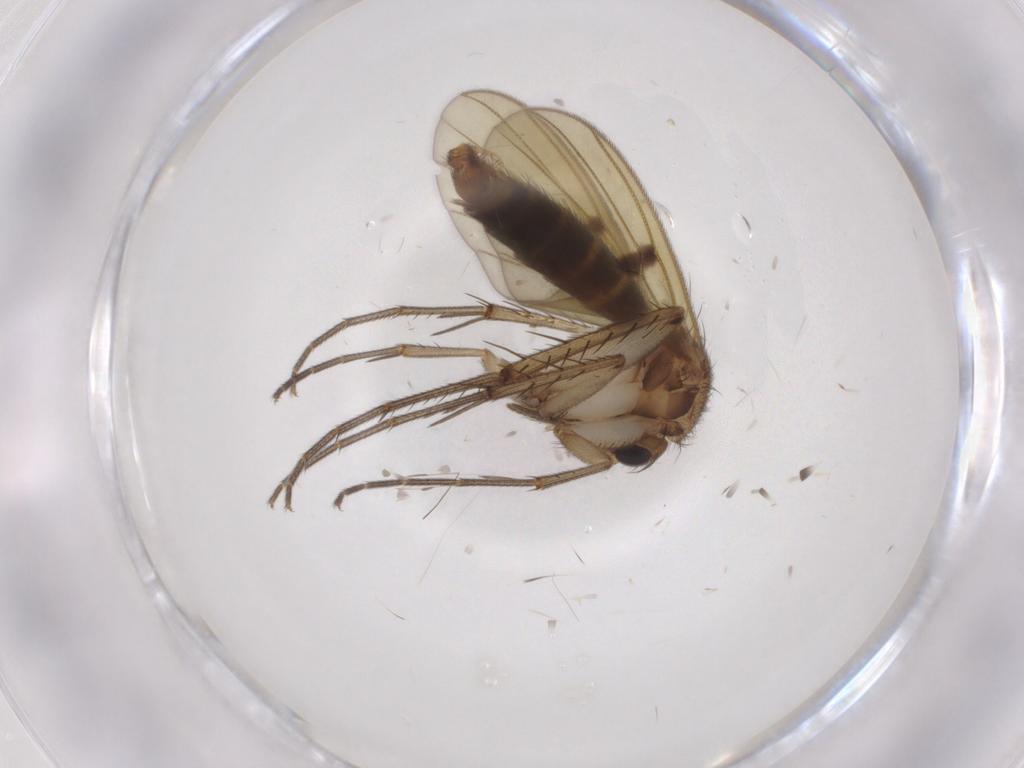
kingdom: Animalia
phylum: Arthropoda
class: Insecta
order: Diptera
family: Mycetophilidae
